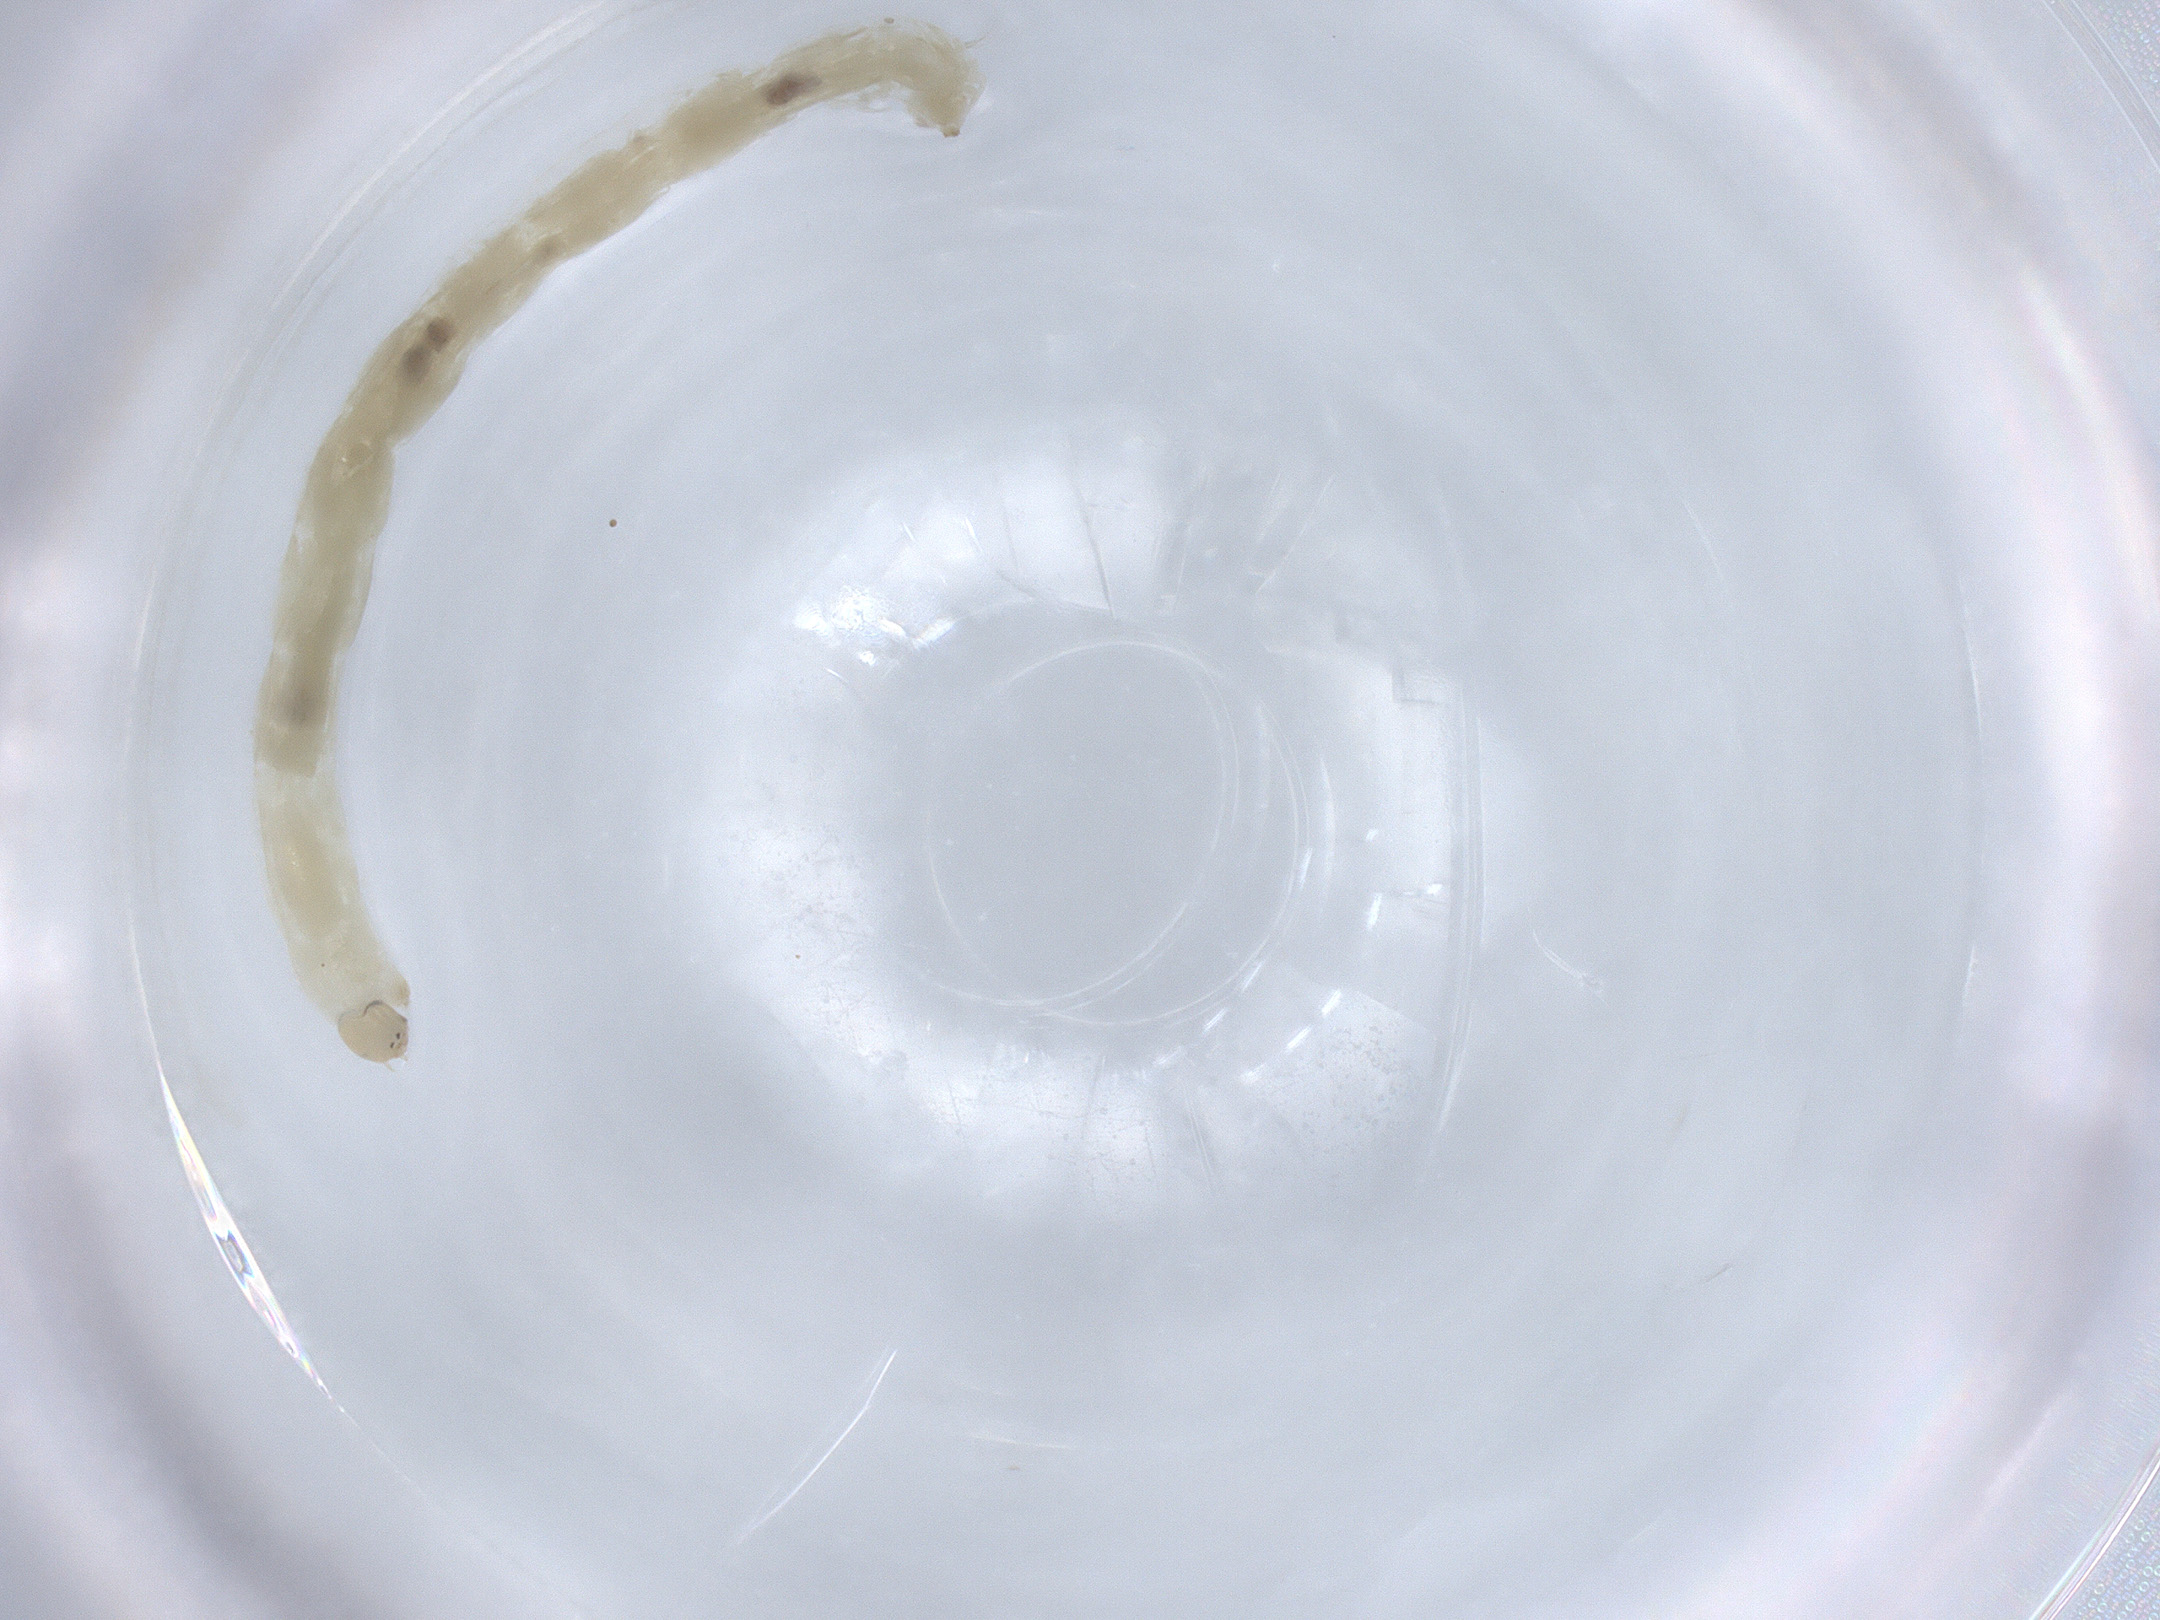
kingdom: Animalia
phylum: Arthropoda
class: Insecta
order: Diptera
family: Chironomidae
